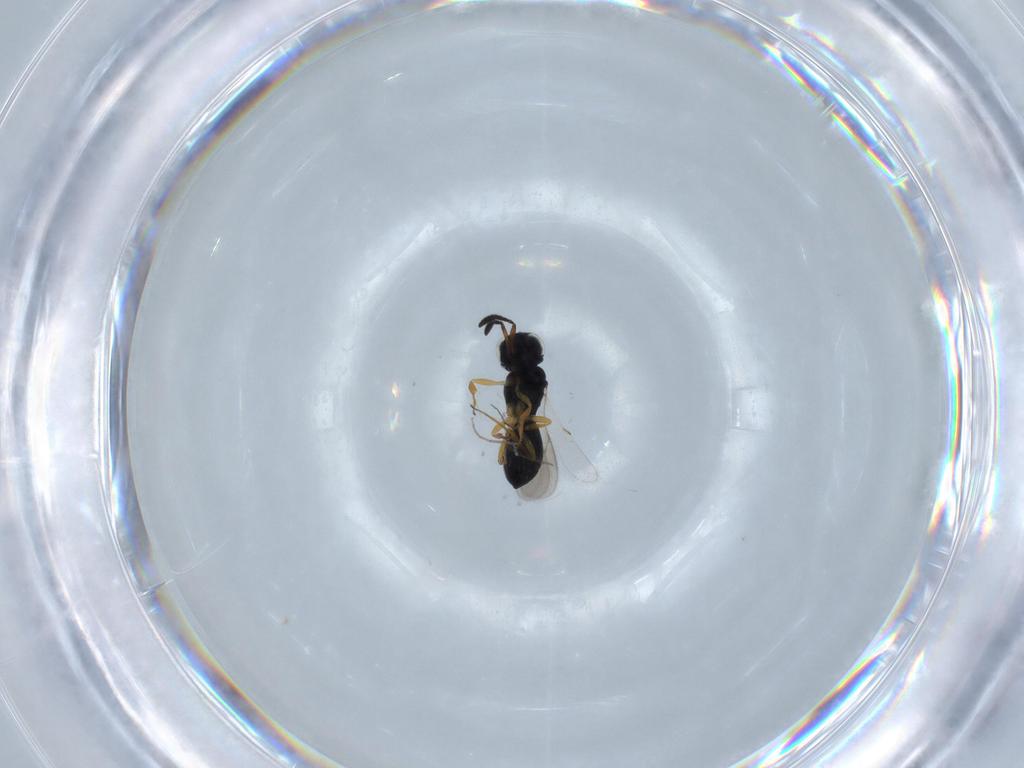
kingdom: Animalia
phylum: Arthropoda
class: Insecta
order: Hymenoptera
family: Scelionidae
